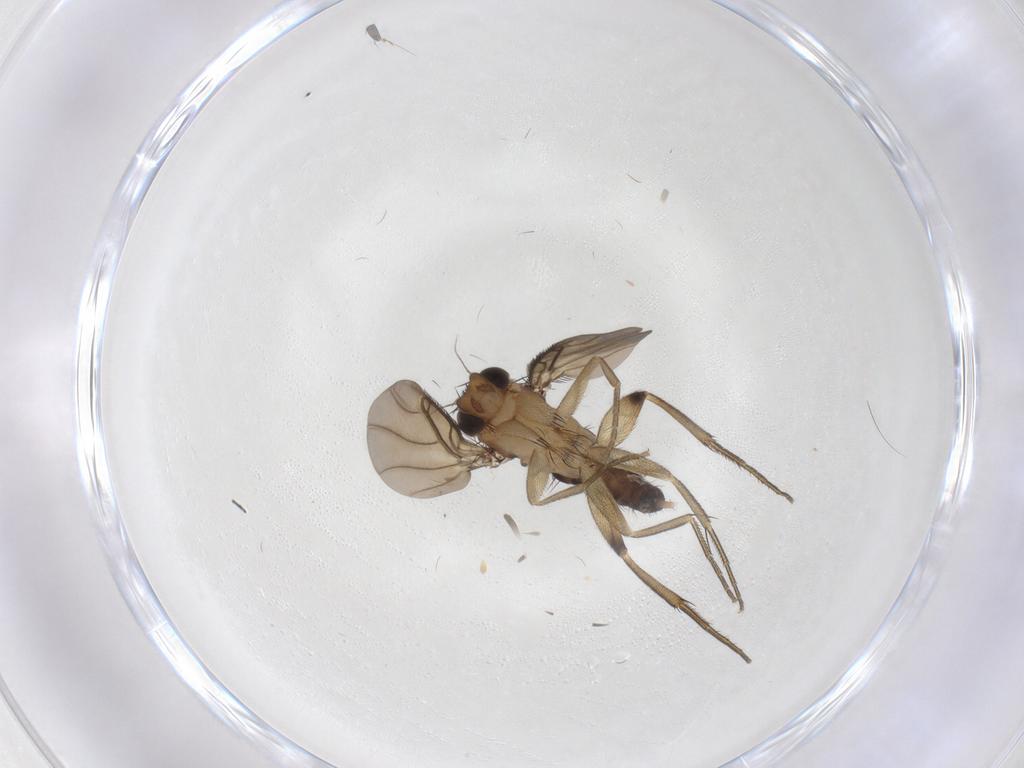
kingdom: Animalia
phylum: Arthropoda
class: Insecta
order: Diptera
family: Phoridae
